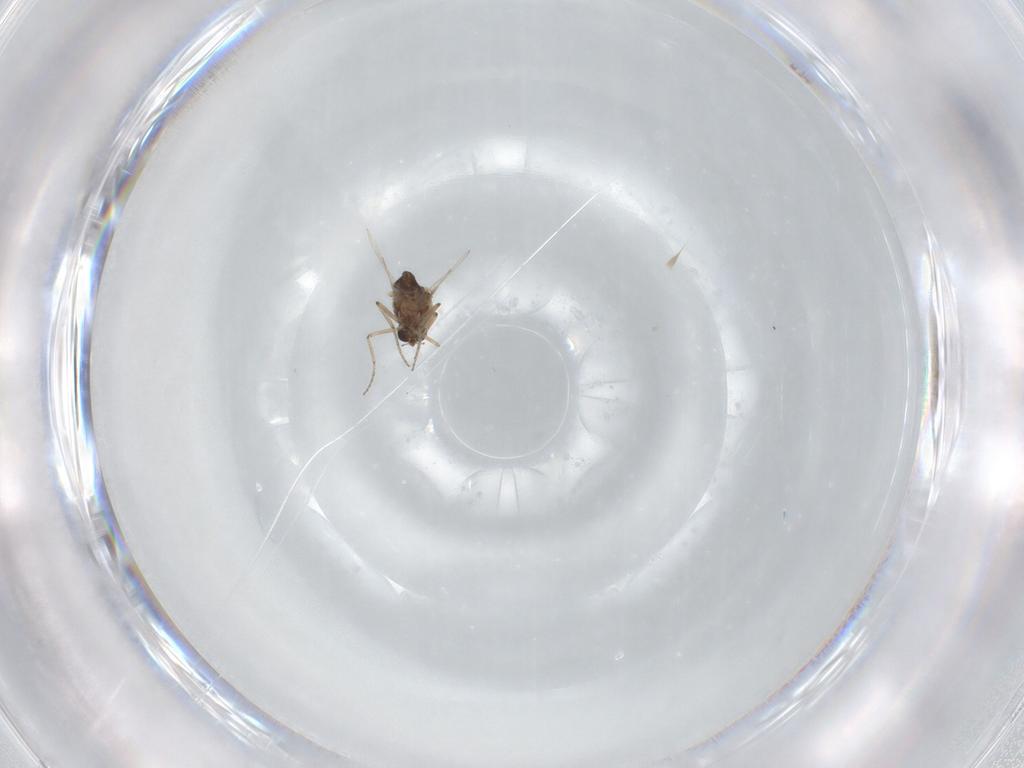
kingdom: Animalia
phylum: Arthropoda
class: Insecta
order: Diptera
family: Ceratopogonidae
